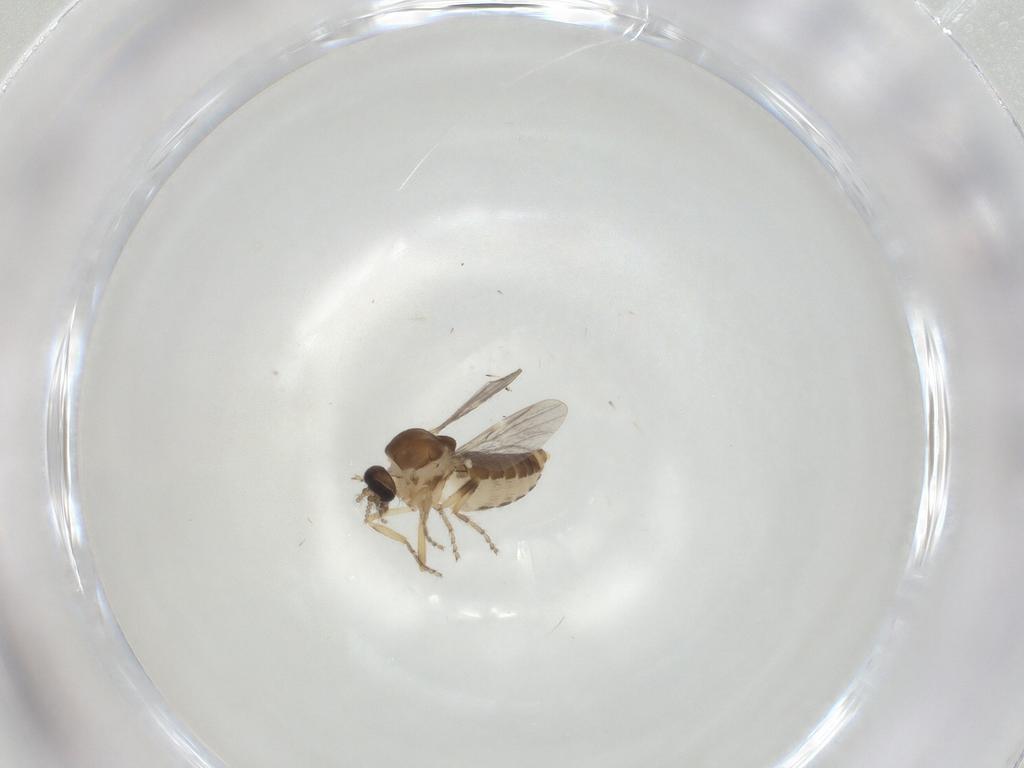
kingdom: Animalia
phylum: Arthropoda
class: Insecta
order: Diptera
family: Ceratopogonidae
